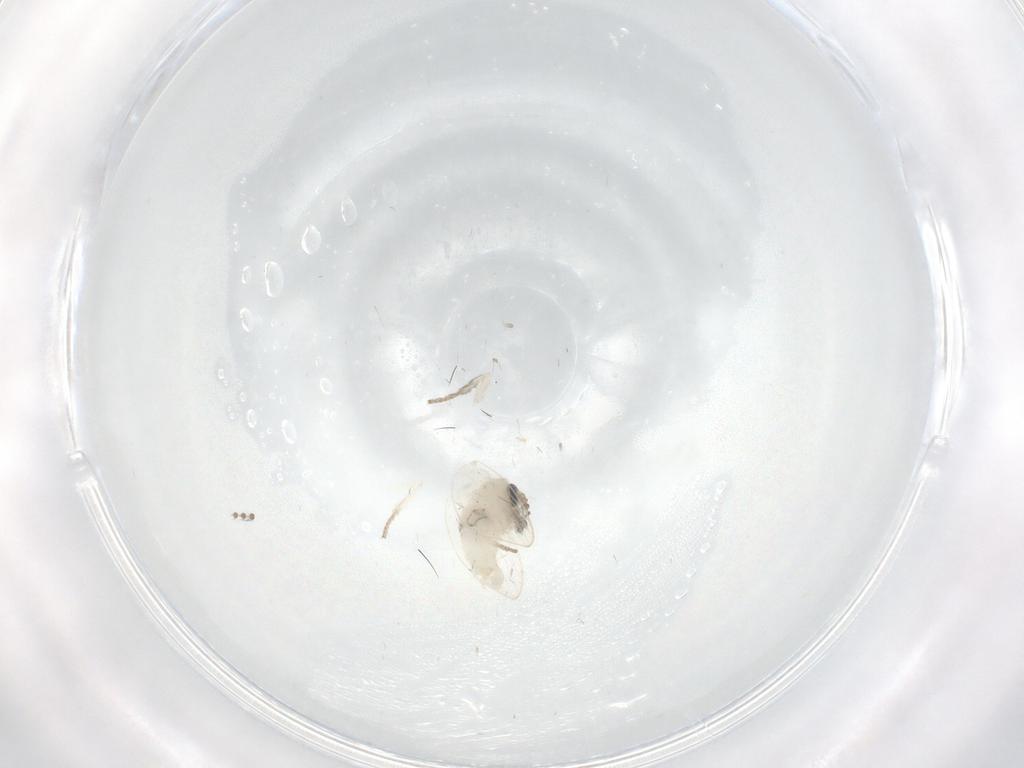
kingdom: Animalia
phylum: Arthropoda
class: Insecta
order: Diptera
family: Psychodidae
